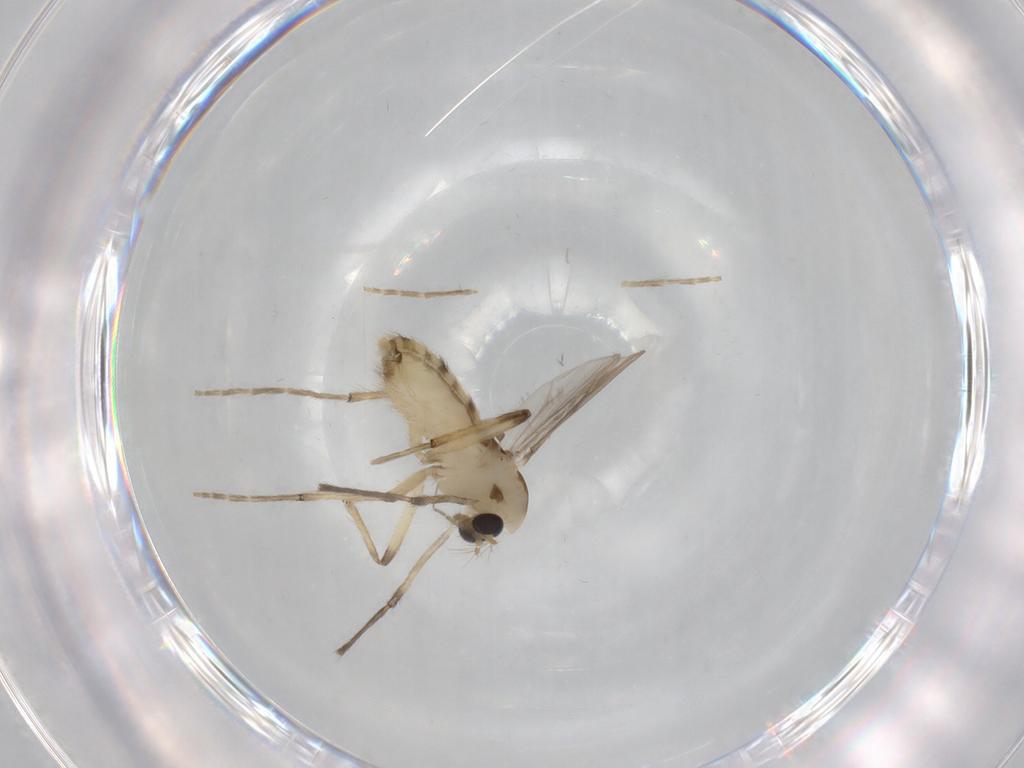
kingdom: Animalia
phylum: Arthropoda
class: Insecta
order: Diptera
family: Chironomidae
